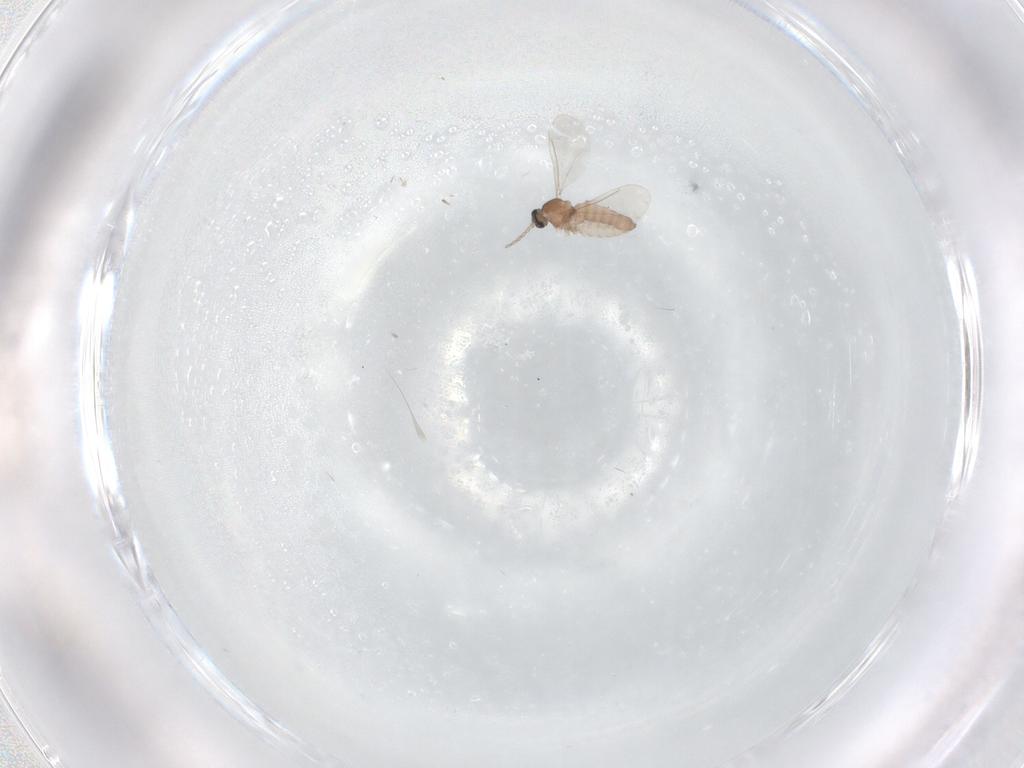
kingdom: Animalia
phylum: Arthropoda
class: Insecta
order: Diptera
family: Cecidomyiidae
